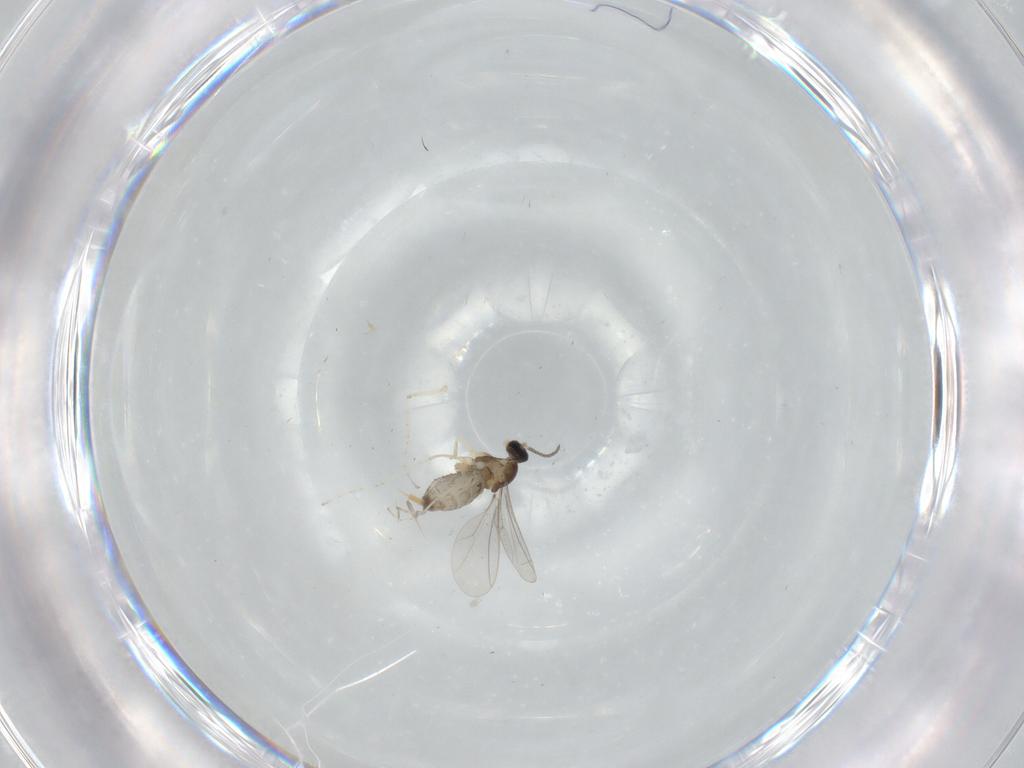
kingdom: Animalia
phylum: Arthropoda
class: Insecta
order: Diptera
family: Cecidomyiidae
